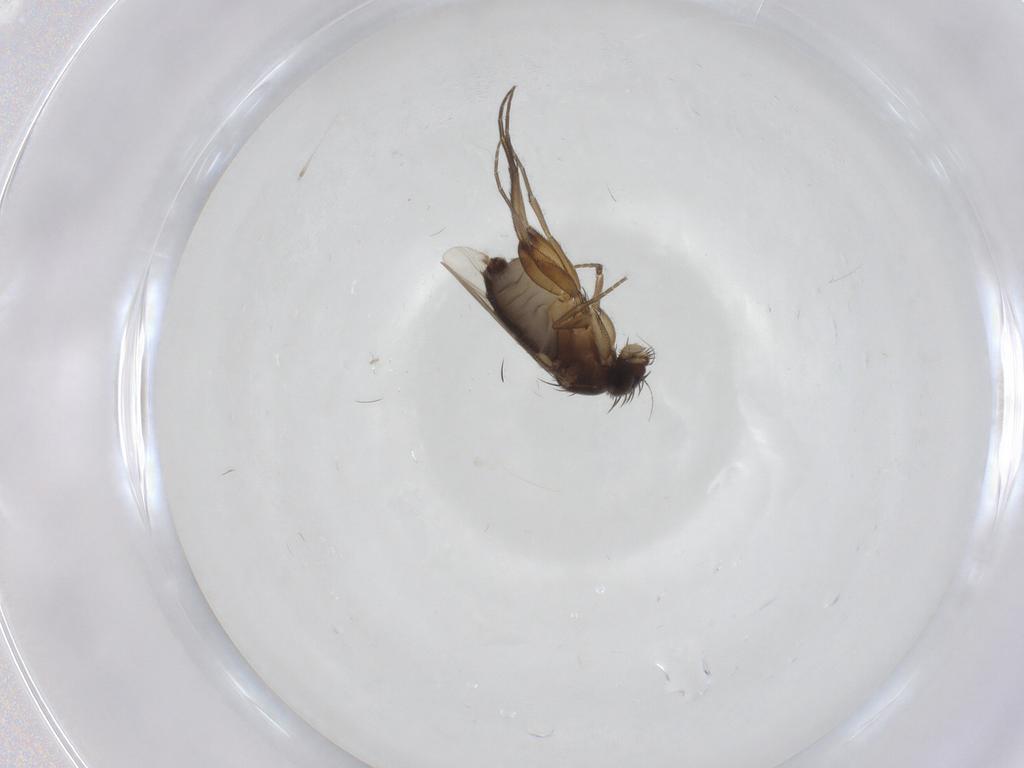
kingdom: Animalia
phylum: Arthropoda
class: Insecta
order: Diptera
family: Phoridae
